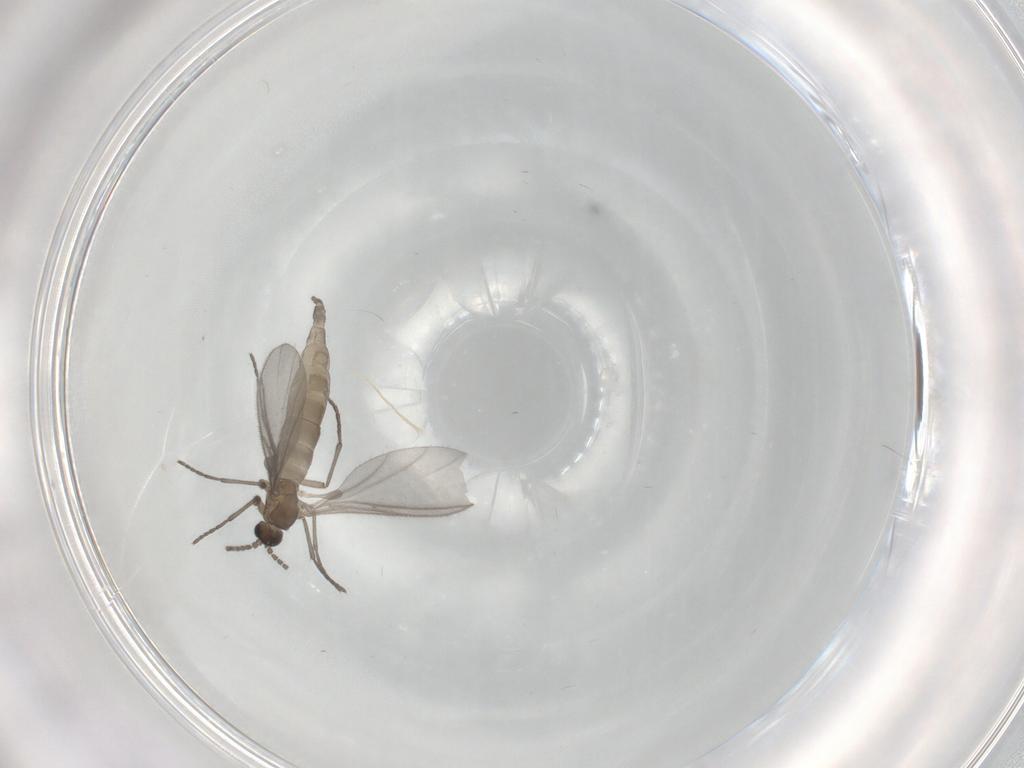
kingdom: Animalia
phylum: Arthropoda
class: Insecta
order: Diptera
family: Sciaridae
